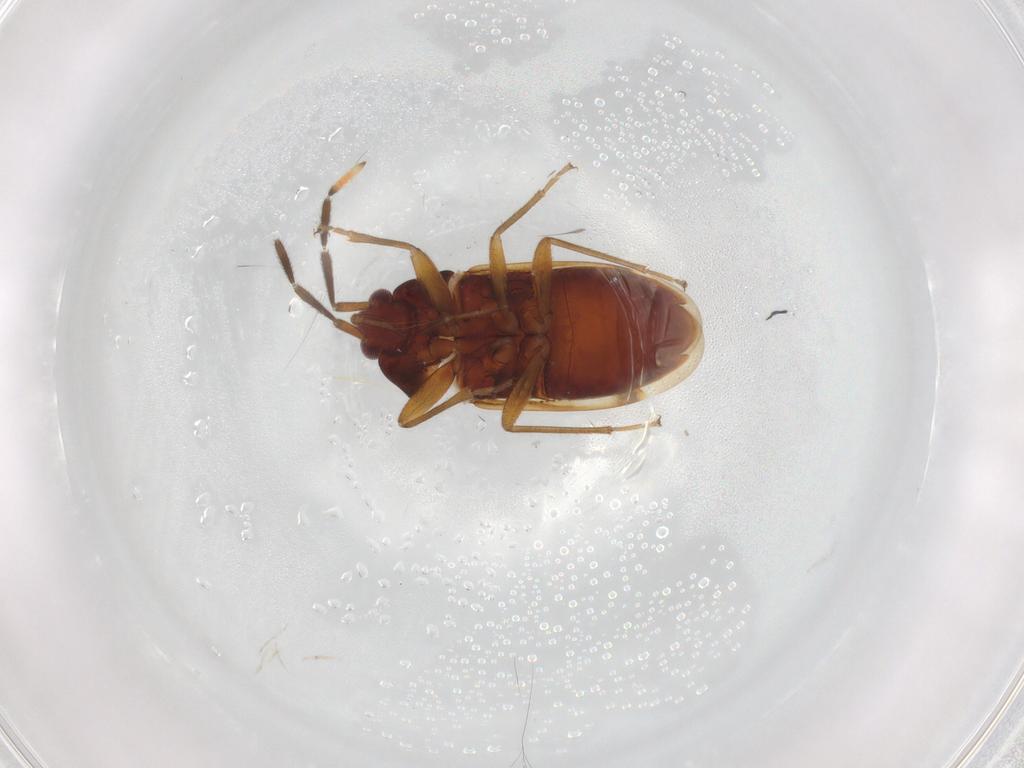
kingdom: Animalia
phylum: Arthropoda
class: Insecta
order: Hemiptera
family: Rhyparochromidae
